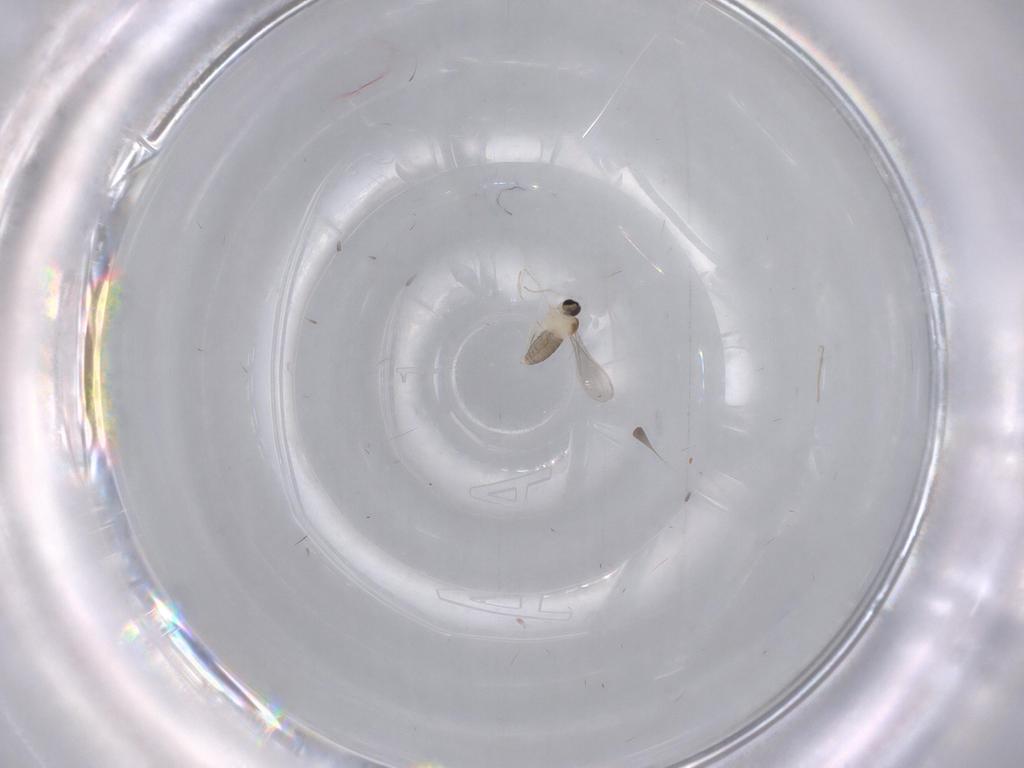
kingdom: Animalia
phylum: Arthropoda
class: Insecta
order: Diptera
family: Cecidomyiidae
